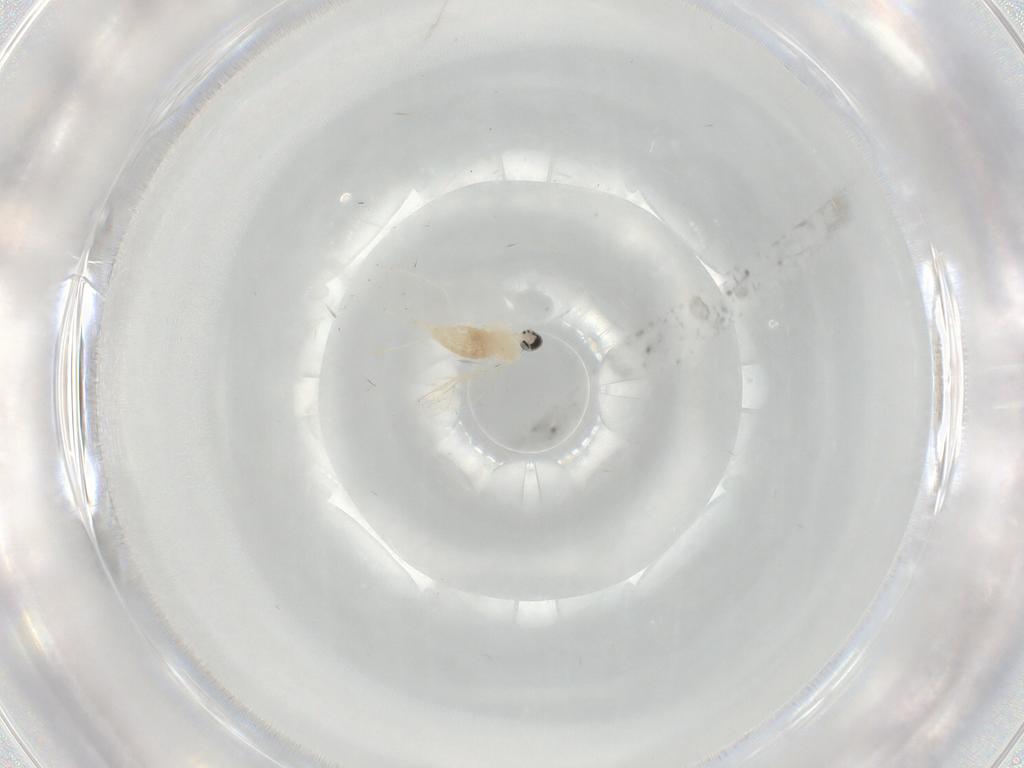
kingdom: Animalia
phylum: Arthropoda
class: Insecta
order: Diptera
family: Cecidomyiidae
